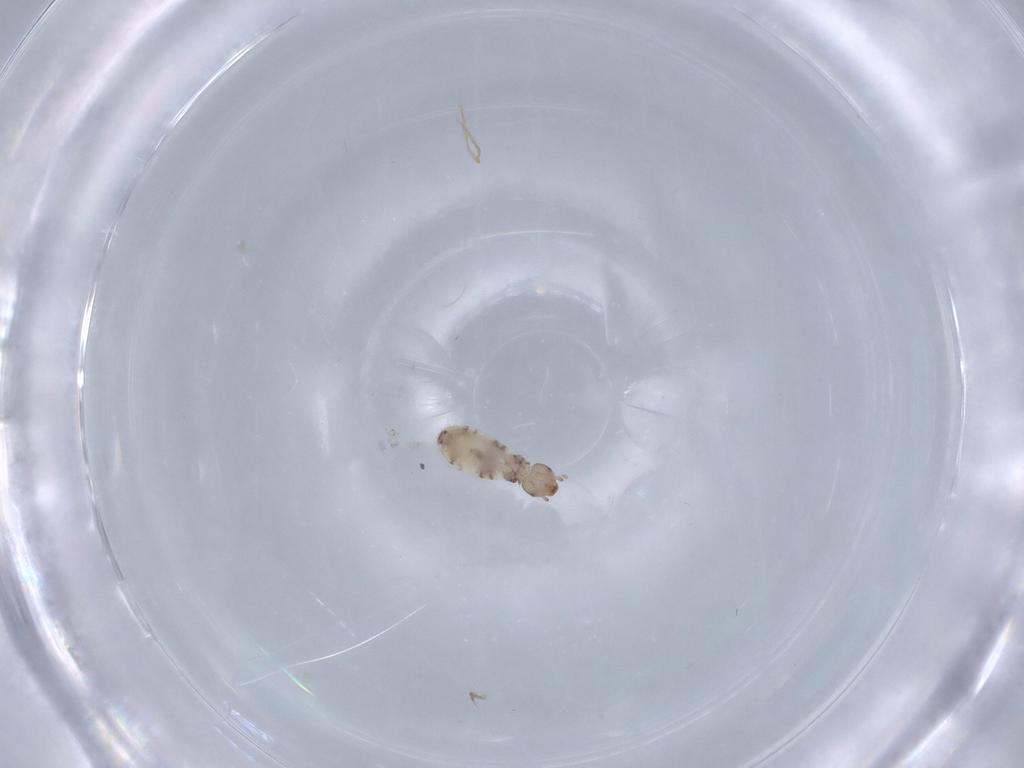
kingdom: Animalia
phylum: Arthropoda
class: Insecta
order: Psocodea
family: Liposcelididae
